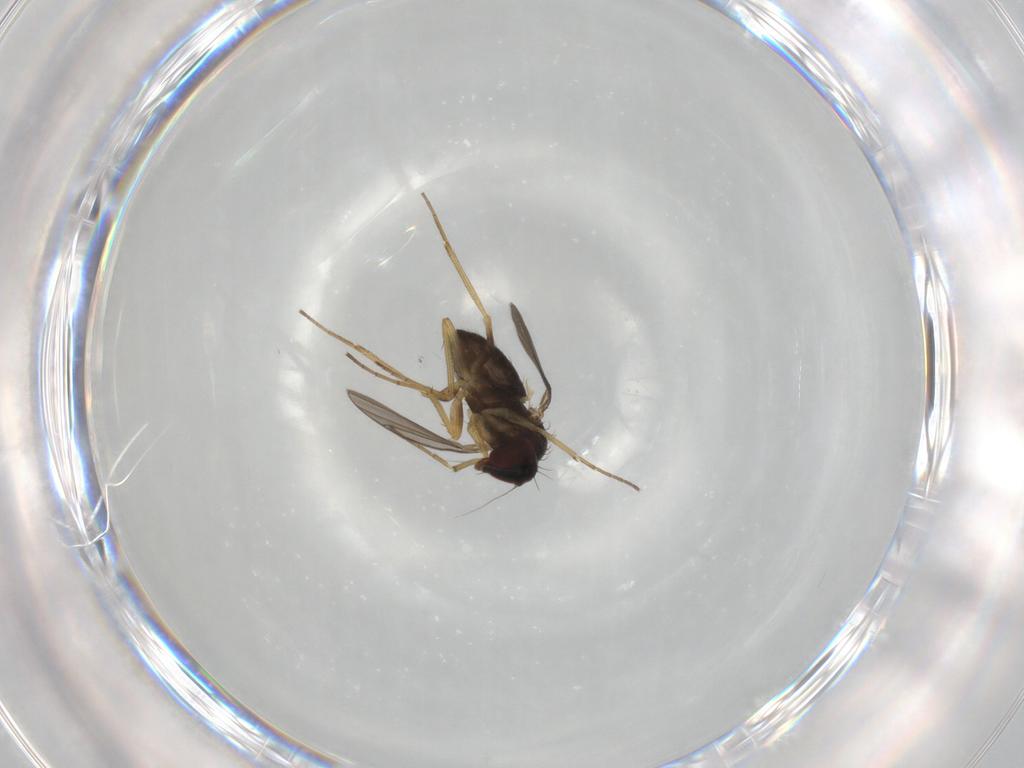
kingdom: Animalia
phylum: Arthropoda
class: Insecta
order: Diptera
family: Dolichopodidae
